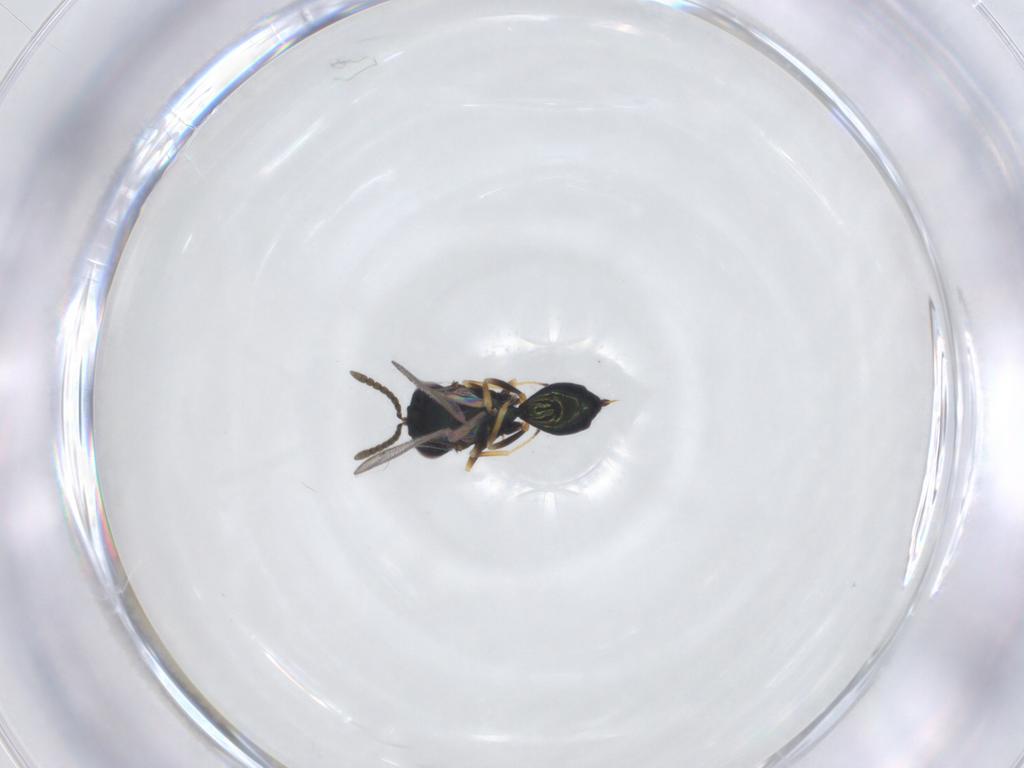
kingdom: Animalia
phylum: Arthropoda
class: Insecta
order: Hymenoptera
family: Pteromalidae
